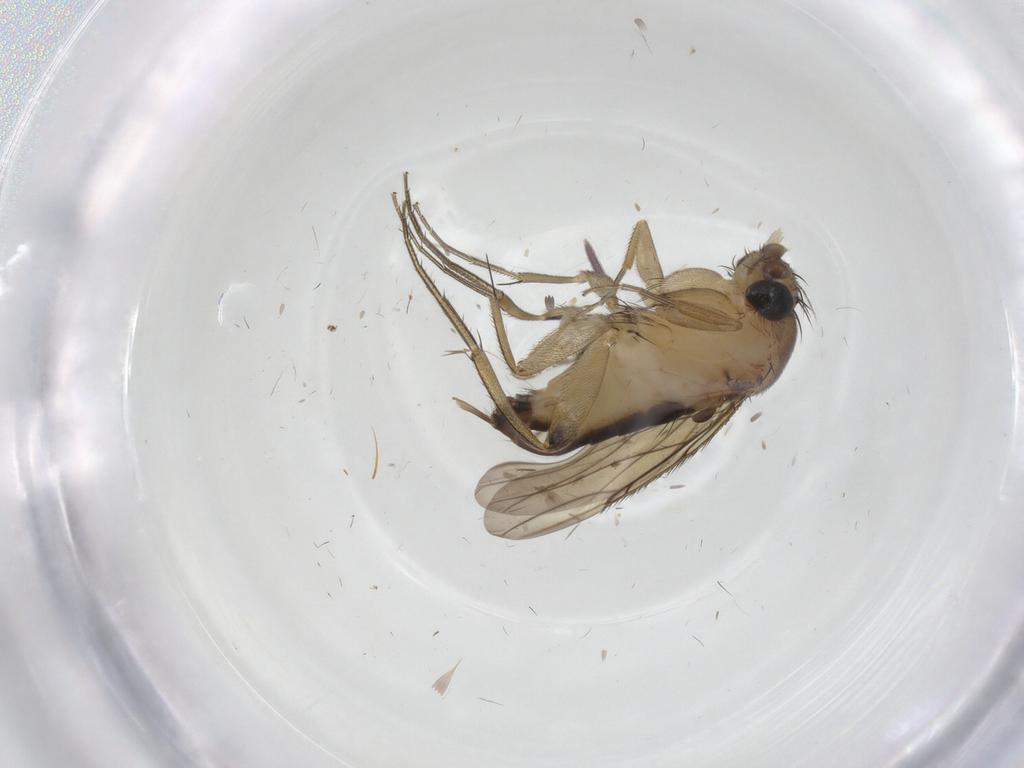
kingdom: Animalia
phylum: Arthropoda
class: Insecta
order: Diptera
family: Phoridae
